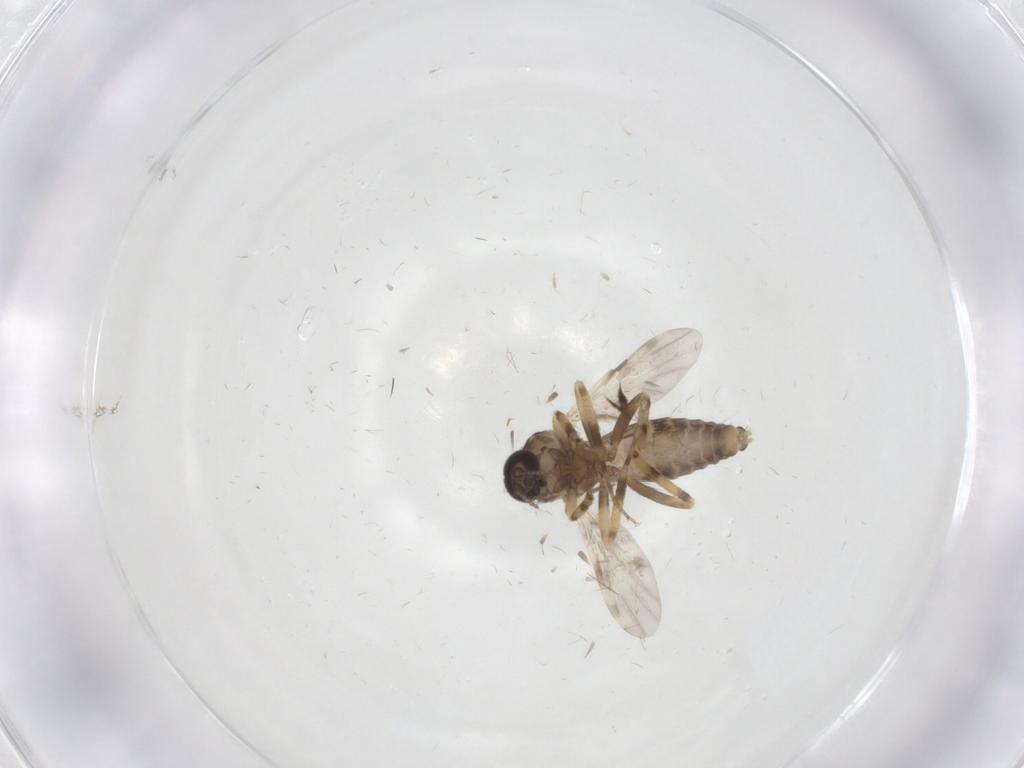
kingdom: Animalia
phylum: Arthropoda
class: Insecta
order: Diptera
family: Ceratopogonidae
